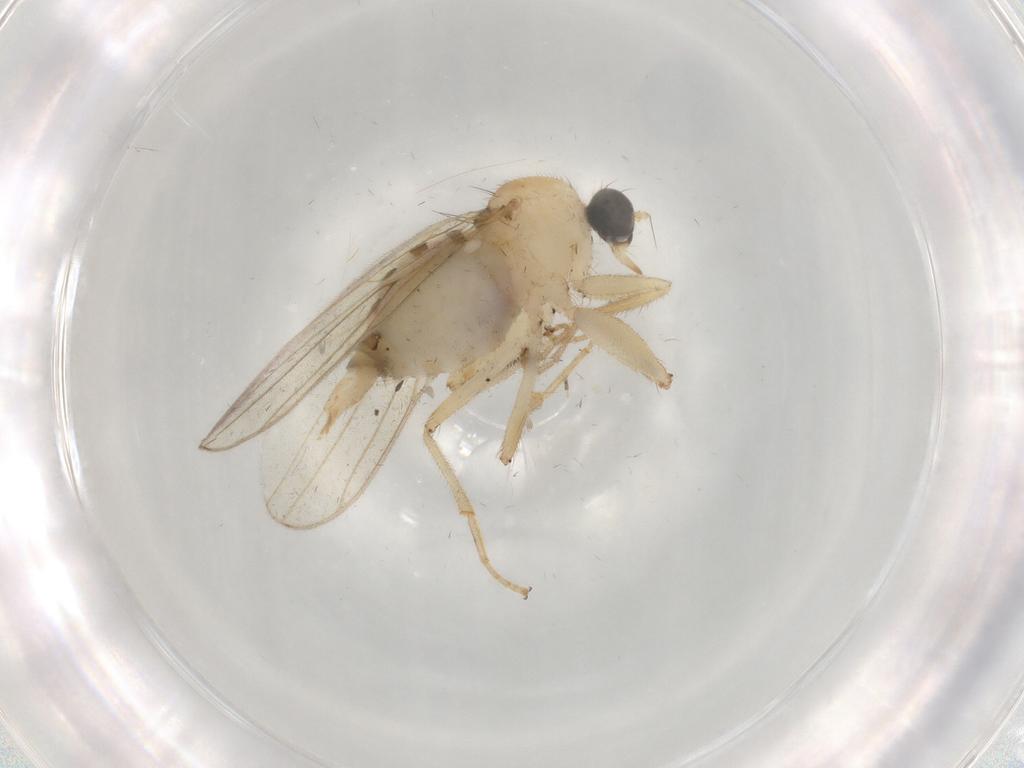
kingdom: Animalia
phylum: Arthropoda
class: Insecta
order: Diptera
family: Hybotidae
